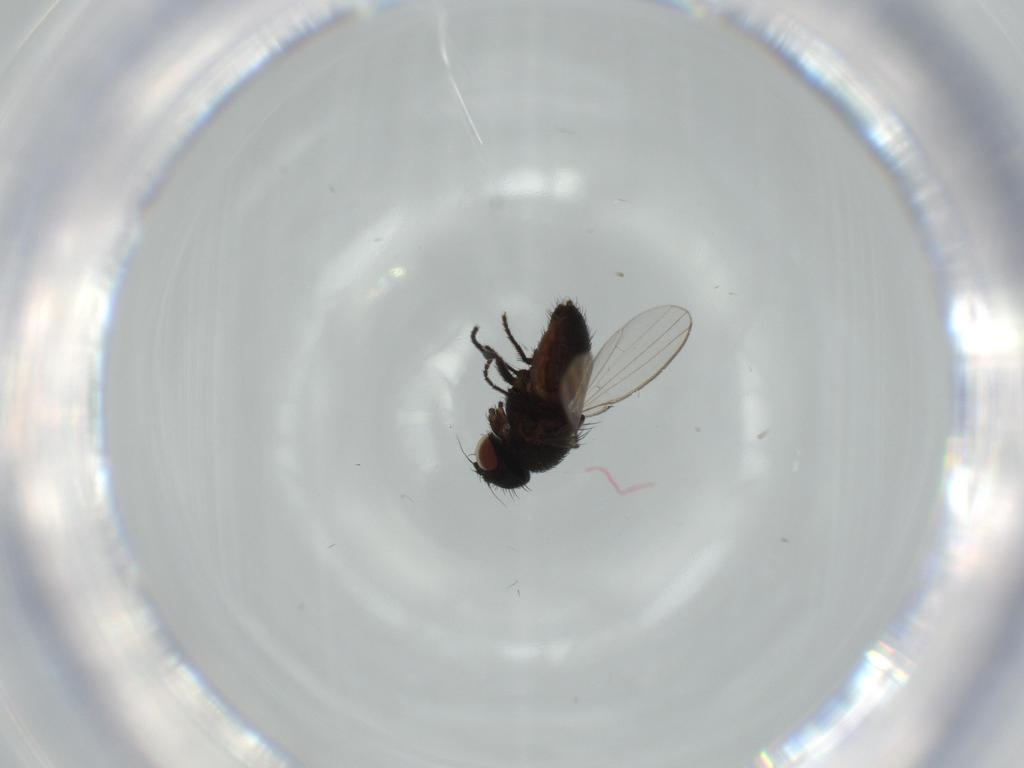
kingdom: Animalia
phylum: Arthropoda
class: Insecta
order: Diptera
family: Milichiidae
